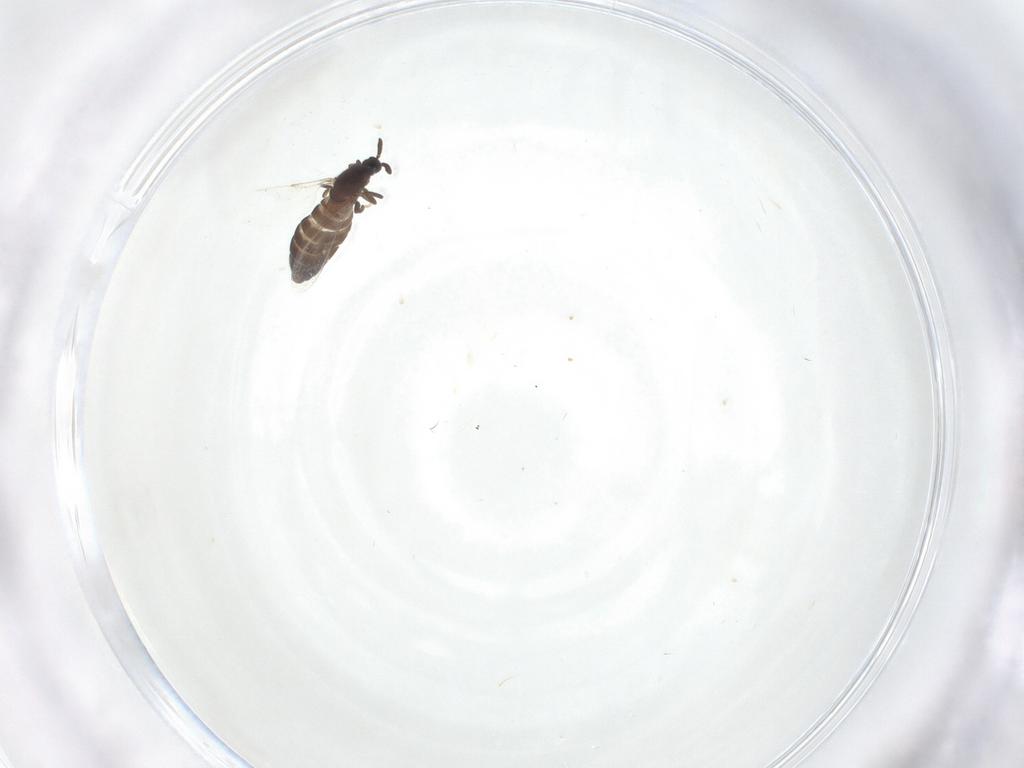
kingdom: Animalia
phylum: Arthropoda
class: Insecta
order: Diptera
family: Scatopsidae
